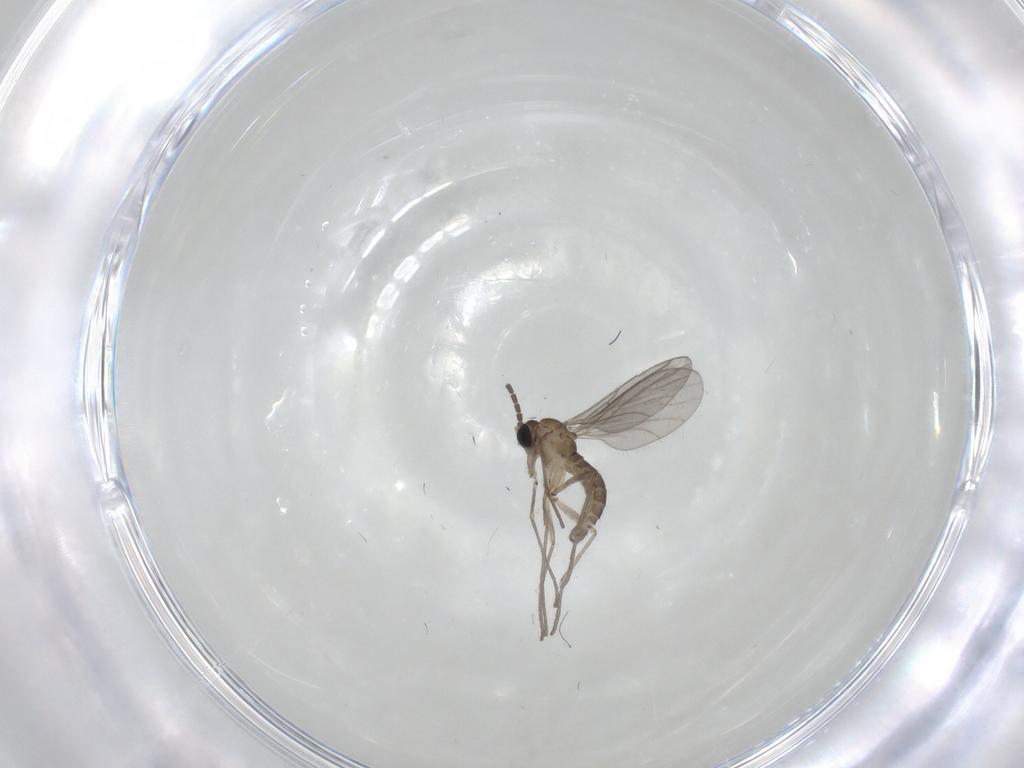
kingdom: Animalia
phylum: Arthropoda
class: Insecta
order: Diptera
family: Sciaridae
